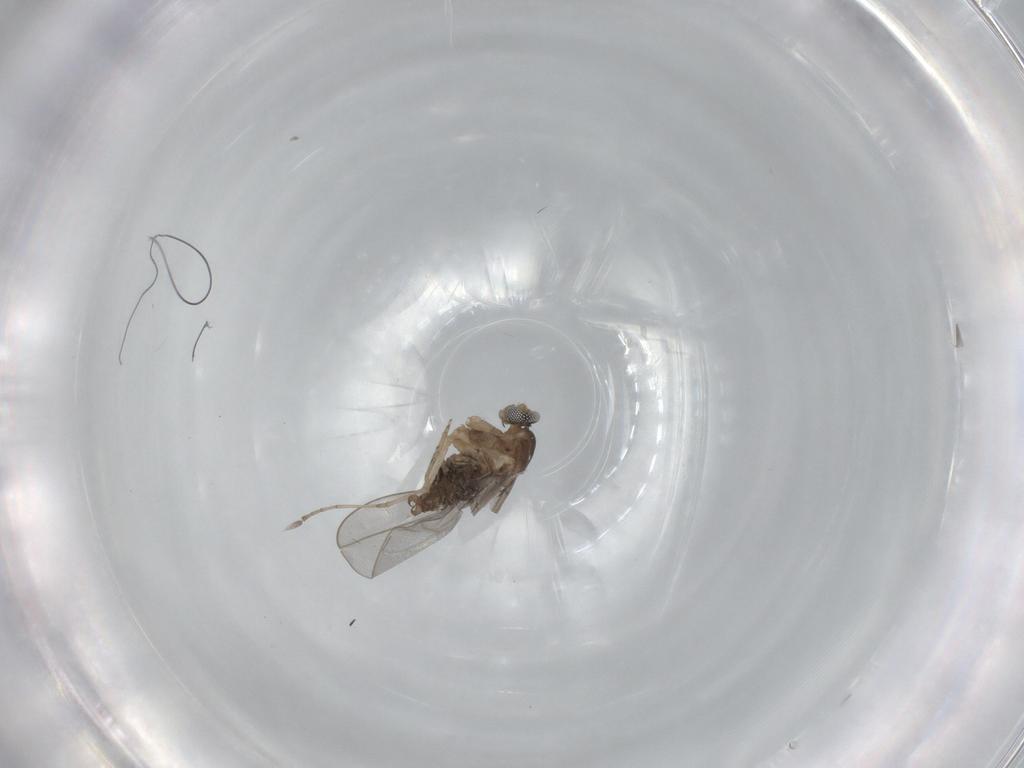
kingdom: Animalia
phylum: Arthropoda
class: Insecta
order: Diptera
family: Cecidomyiidae
